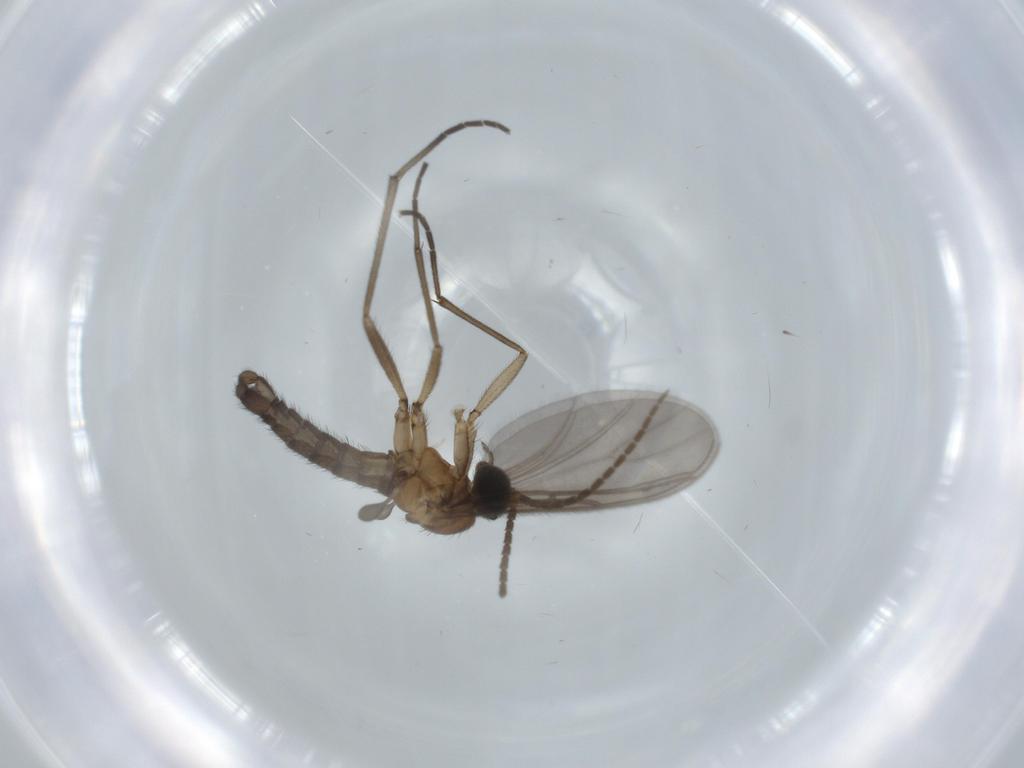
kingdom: Animalia
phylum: Arthropoda
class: Insecta
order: Diptera
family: Sciaridae
